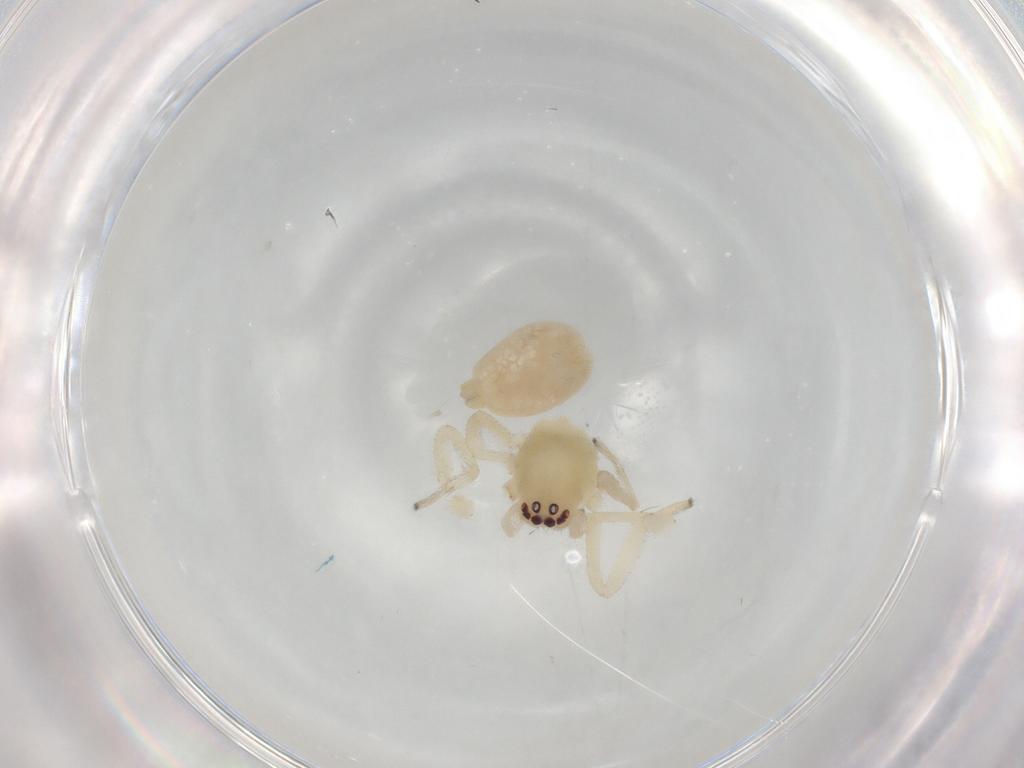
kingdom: Animalia
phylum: Arthropoda
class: Arachnida
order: Araneae
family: Cheiracanthiidae
